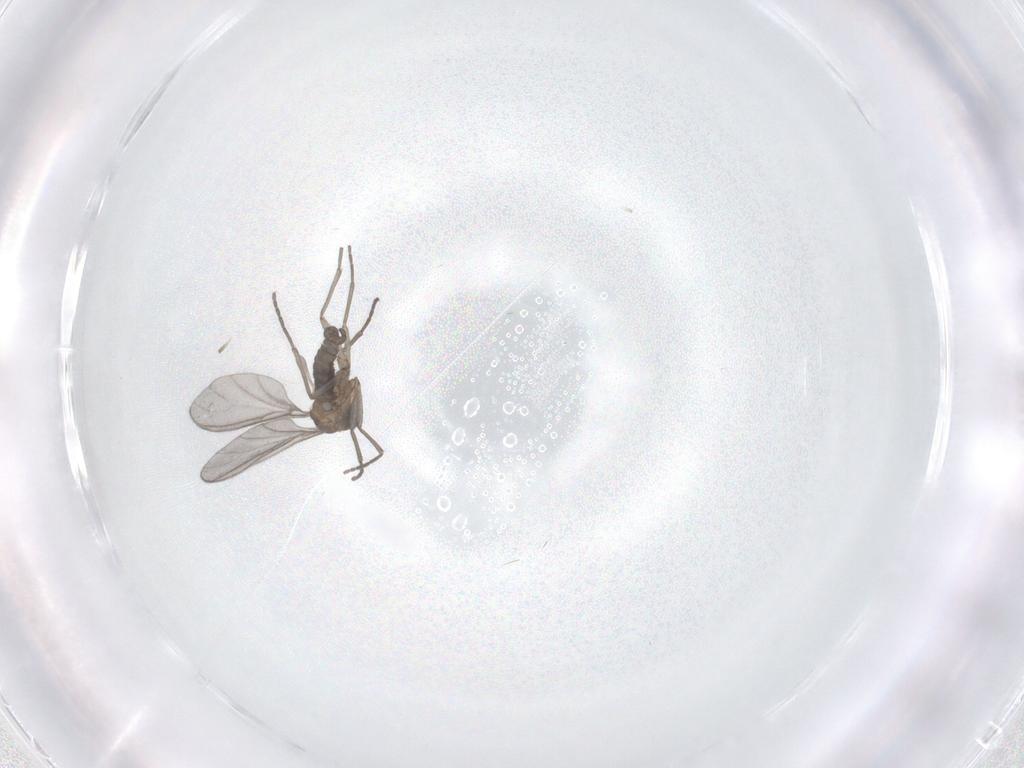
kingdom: Animalia
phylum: Arthropoda
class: Insecta
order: Diptera
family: Sciaridae
